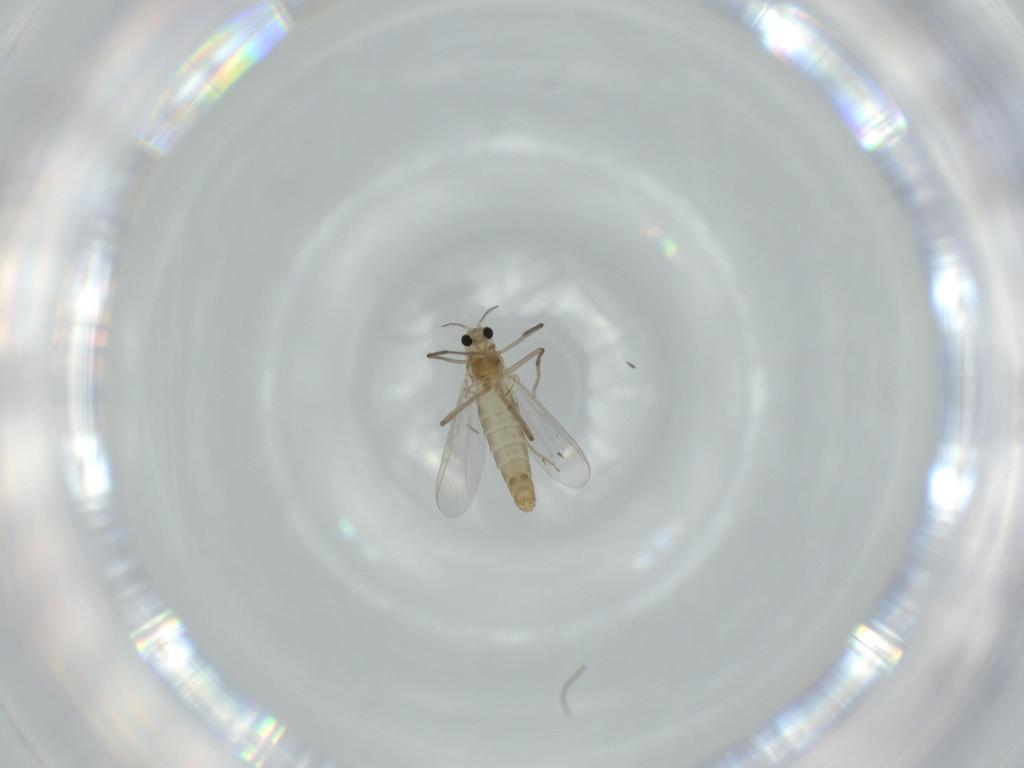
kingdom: Animalia
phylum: Arthropoda
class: Insecta
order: Diptera
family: Chironomidae
